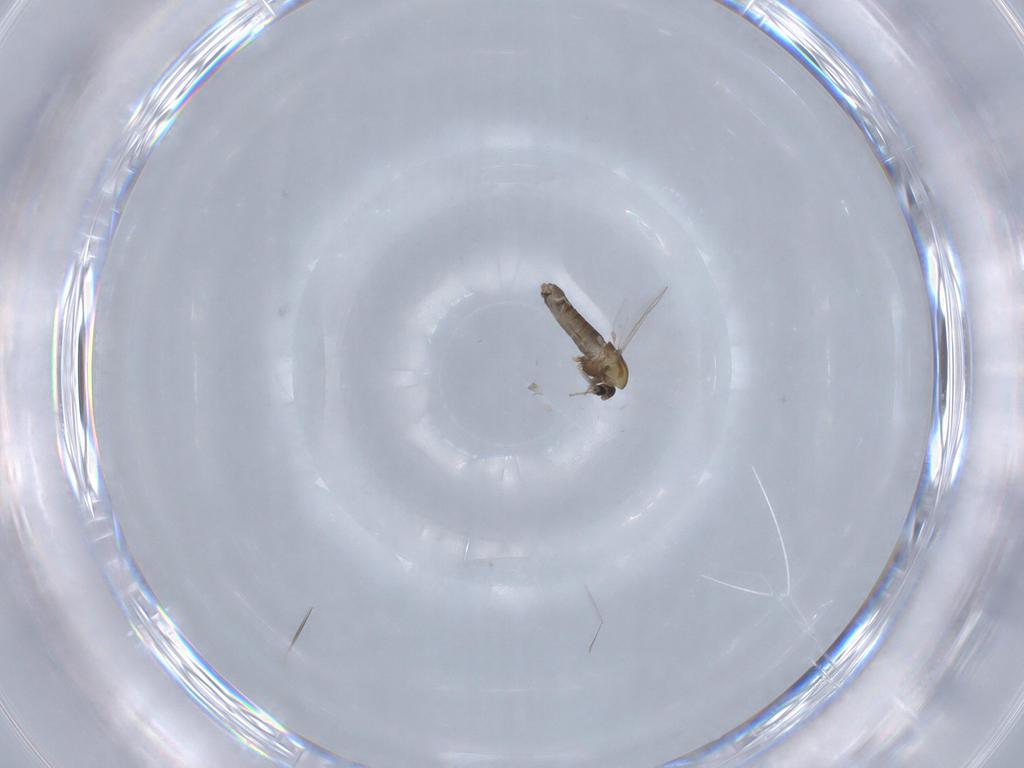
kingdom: Animalia
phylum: Arthropoda
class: Insecta
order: Diptera
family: Chironomidae
